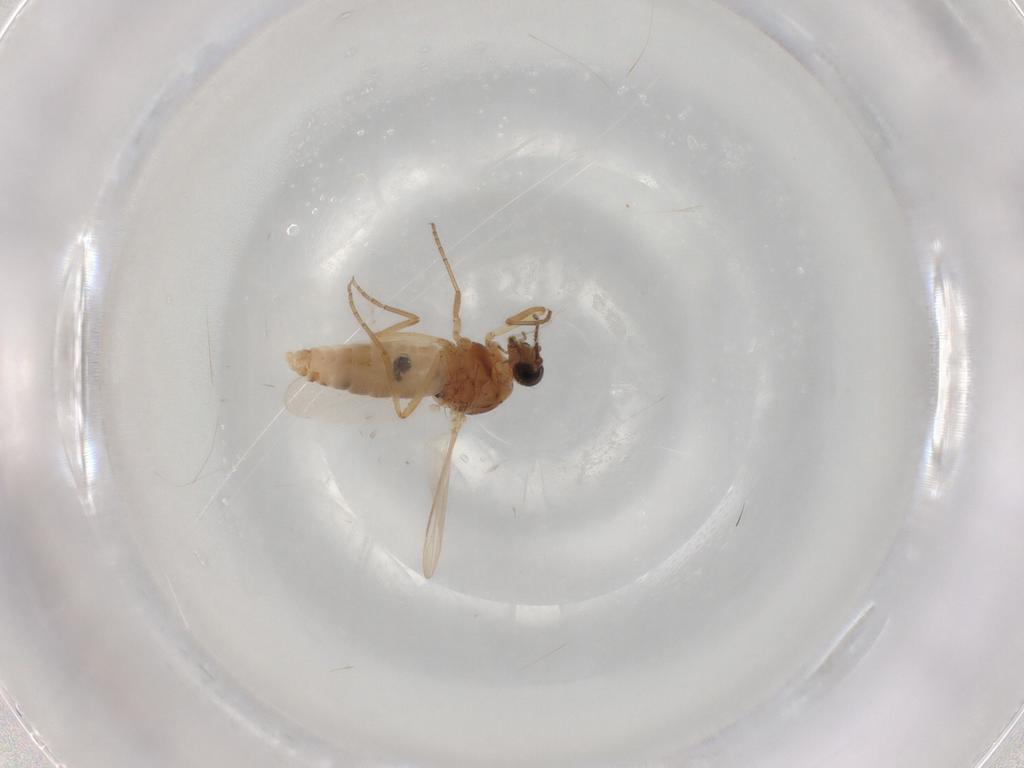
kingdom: Animalia
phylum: Arthropoda
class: Insecta
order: Diptera
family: Ceratopogonidae
